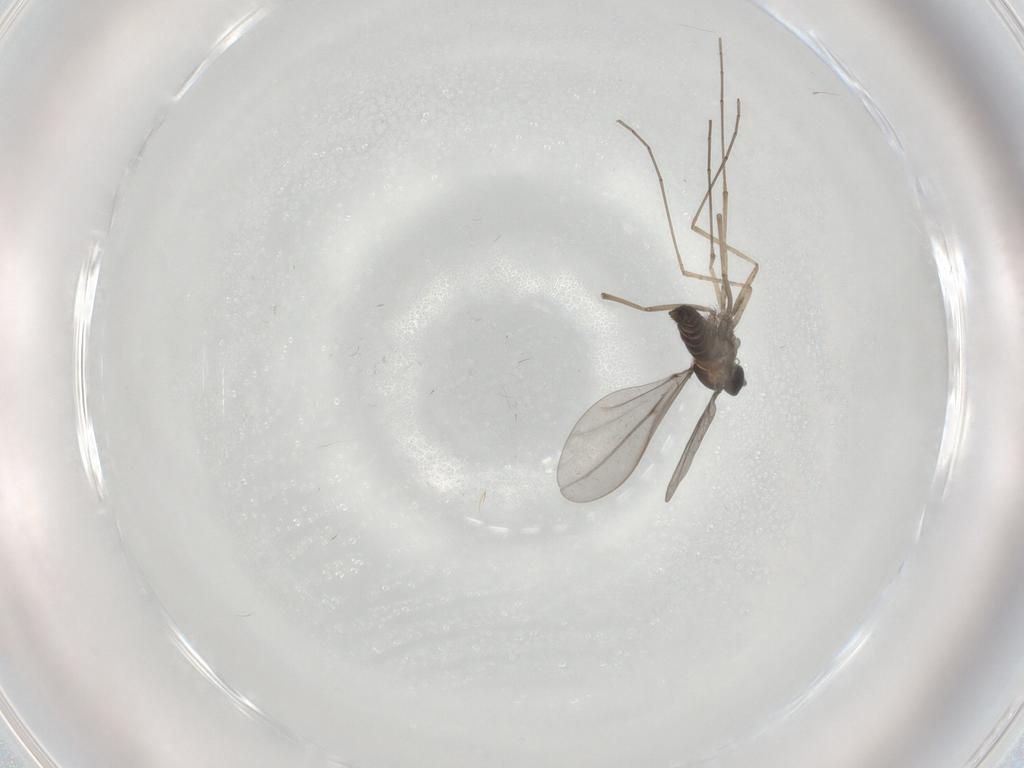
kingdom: Animalia
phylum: Arthropoda
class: Insecta
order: Diptera
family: Cecidomyiidae
